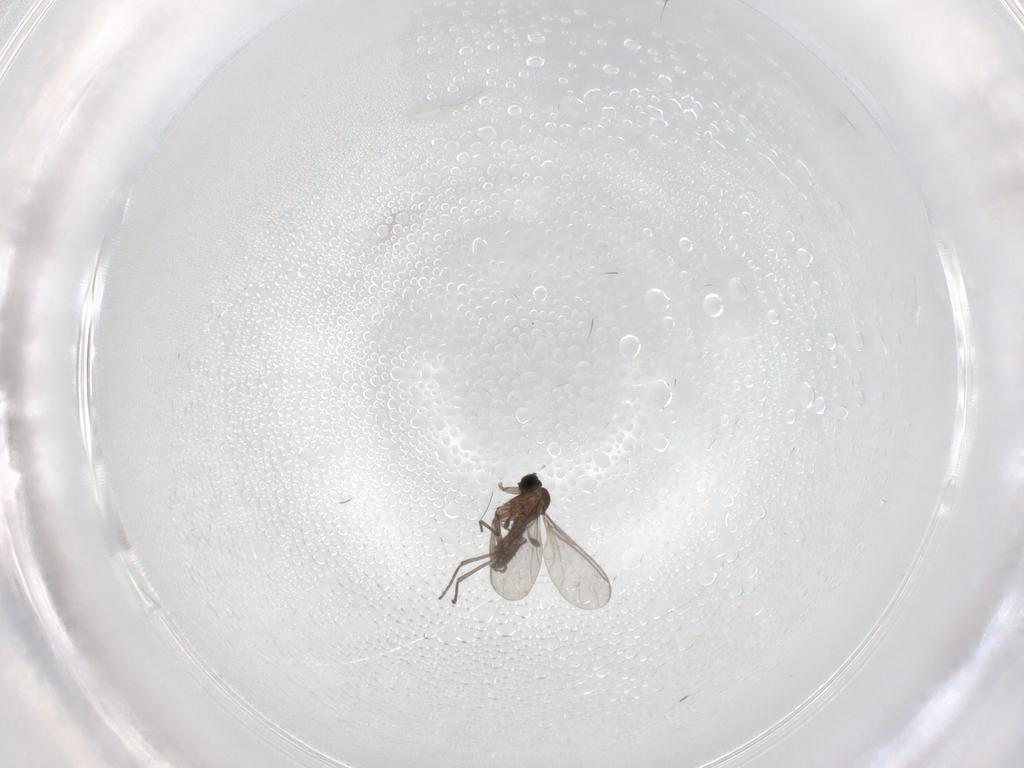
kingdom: Animalia
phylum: Arthropoda
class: Insecta
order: Diptera
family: Sciaridae
